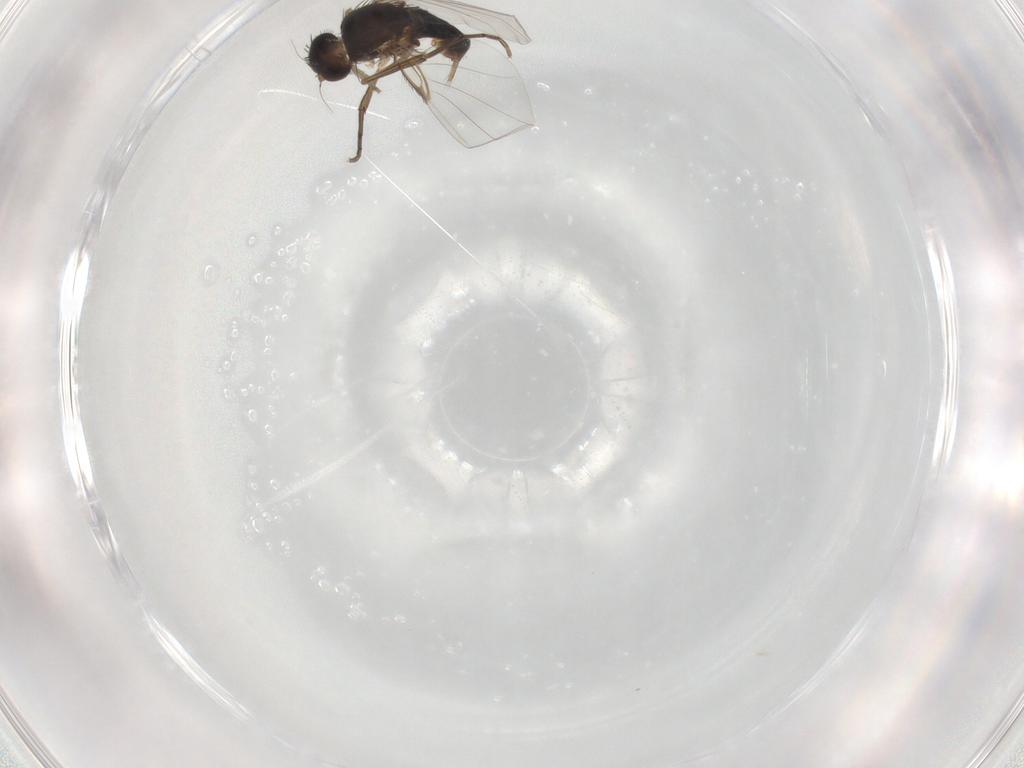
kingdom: Animalia
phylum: Arthropoda
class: Insecta
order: Diptera
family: Phoridae
